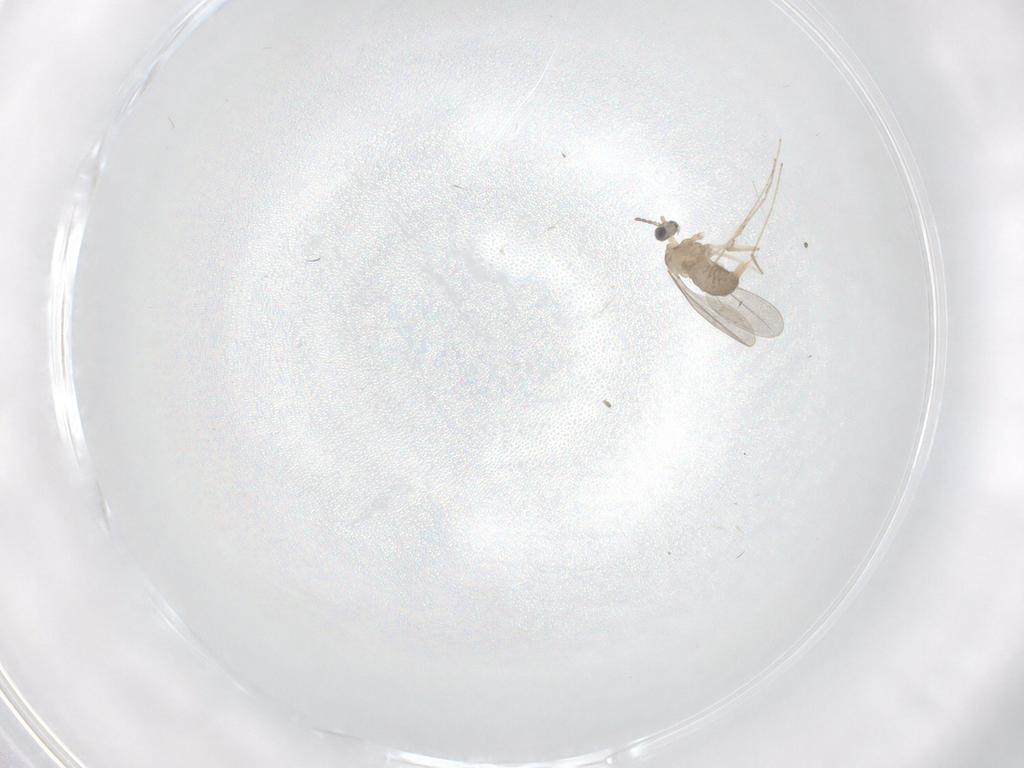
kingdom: Animalia
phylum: Arthropoda
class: Insecta
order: Diptera
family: Cecidomyiidae
